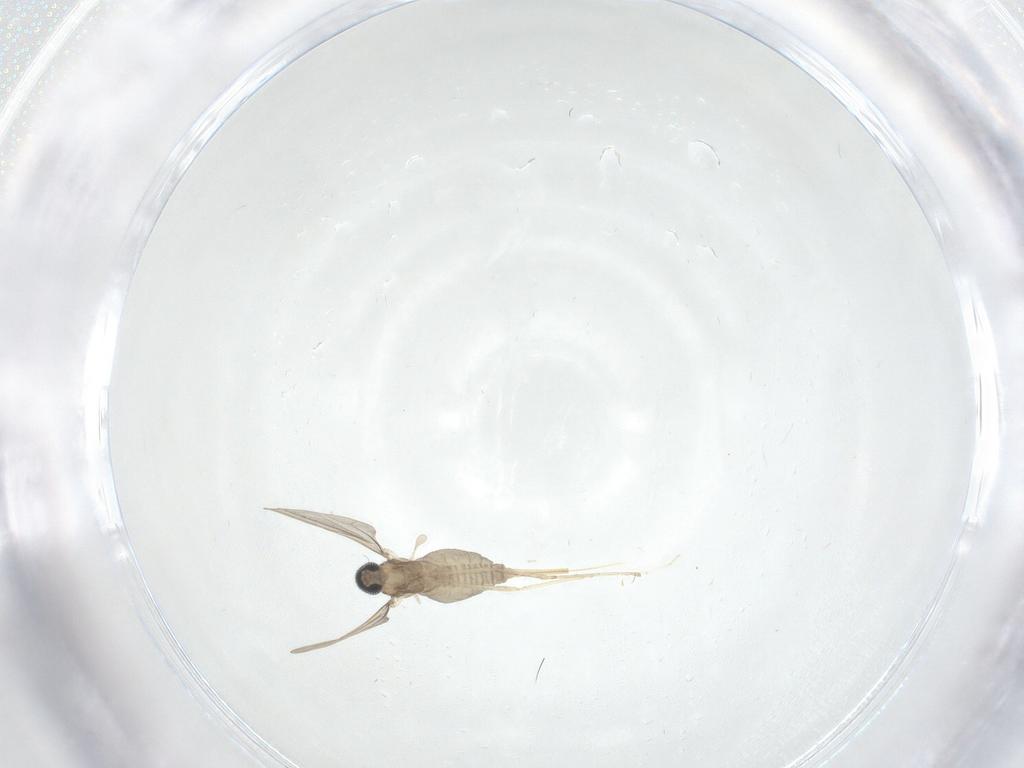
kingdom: Animalia
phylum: Arthropoda
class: Insecta
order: Diptera
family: Cecidomyiidae
